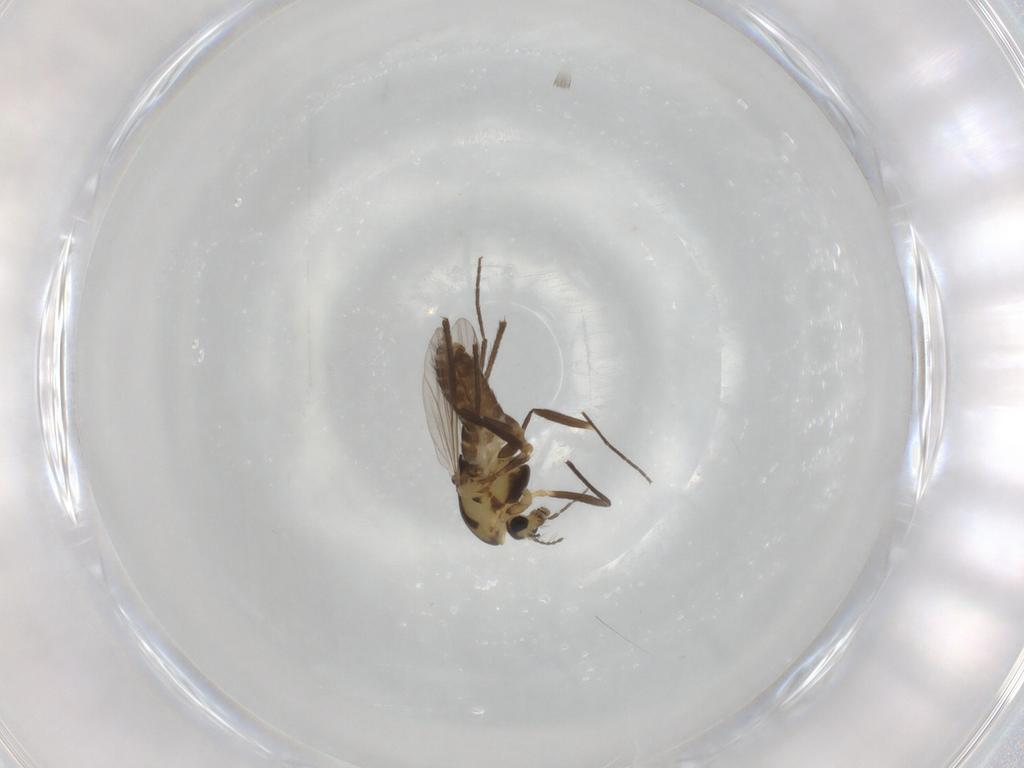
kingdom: Animalia
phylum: Arthropoda
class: Insecta
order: Diptera
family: Chironomidae
